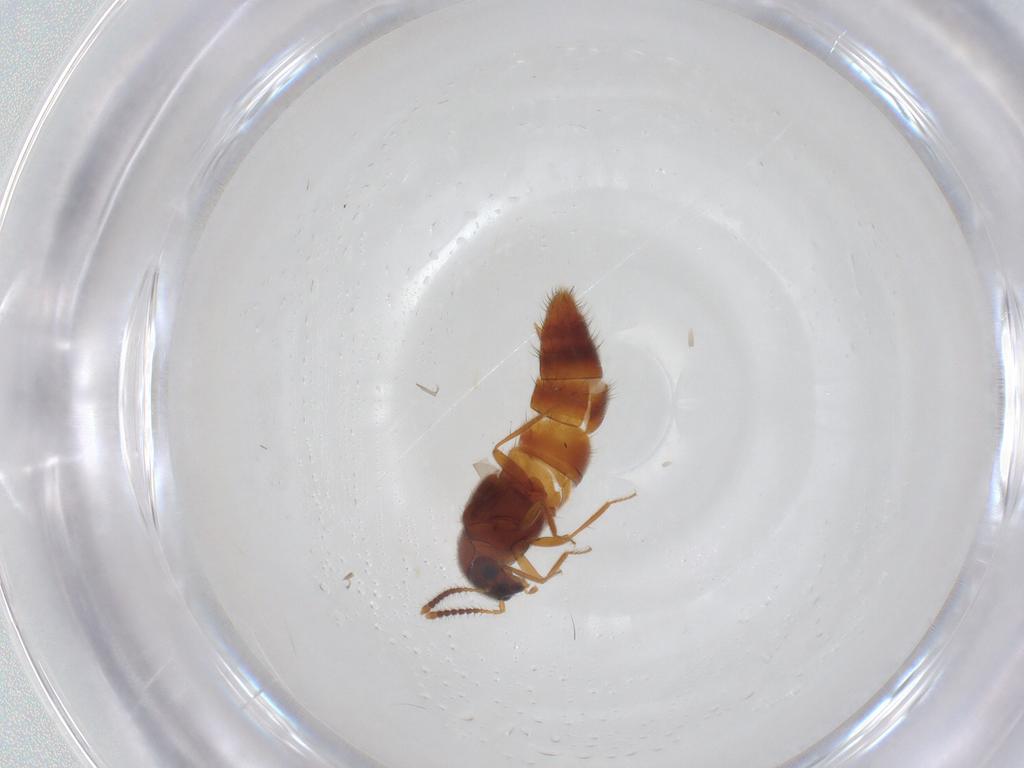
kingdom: Animalia
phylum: Arthropoda
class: Insecta
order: Coleoptera
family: Staphylinidae
